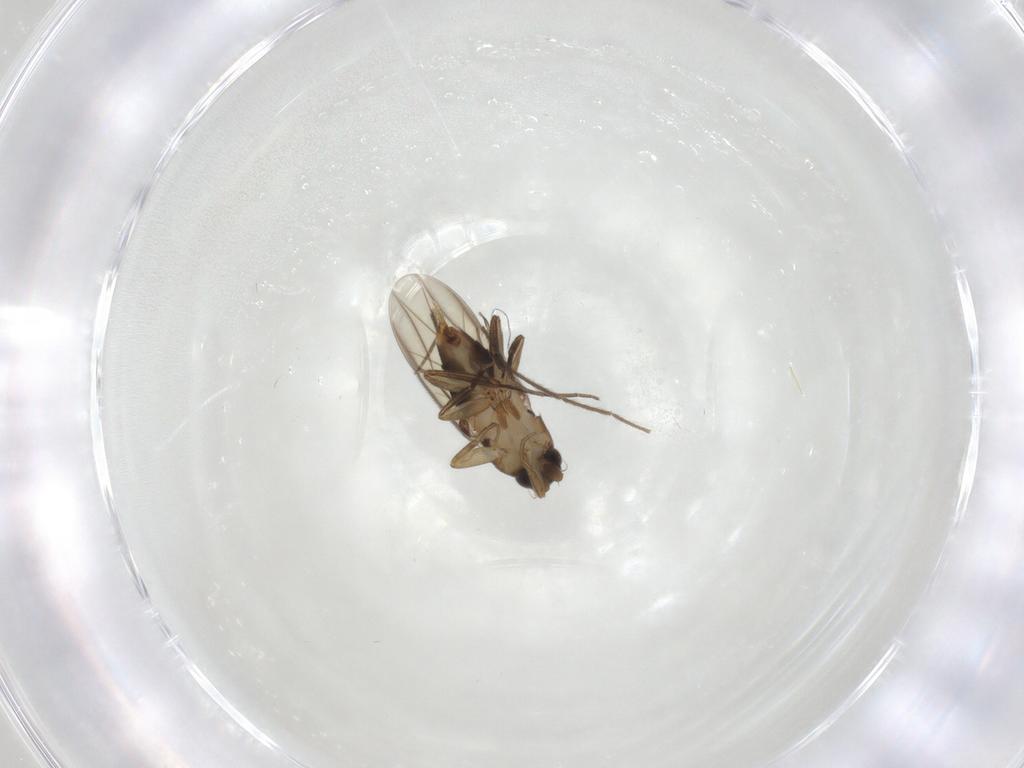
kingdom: Animalia
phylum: Arthropoda
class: Insecta
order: Diptera
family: Phoridae
